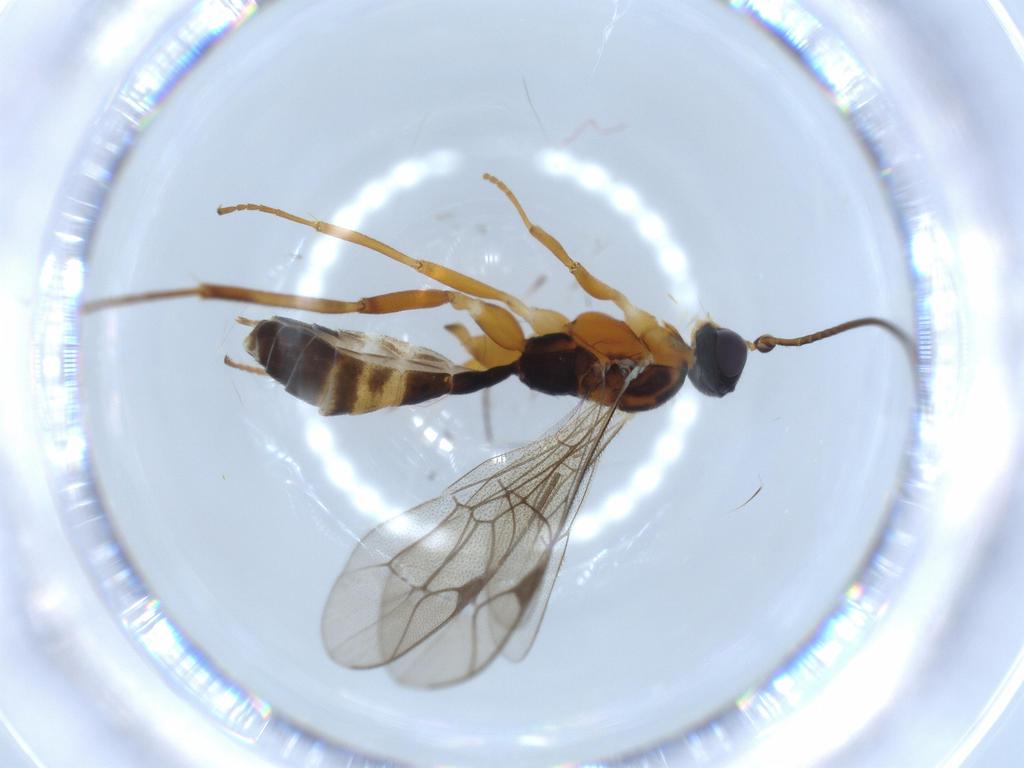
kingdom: Animalia
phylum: Arthropoda
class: Insecta
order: Hymenoptera
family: Ichneumonidae
